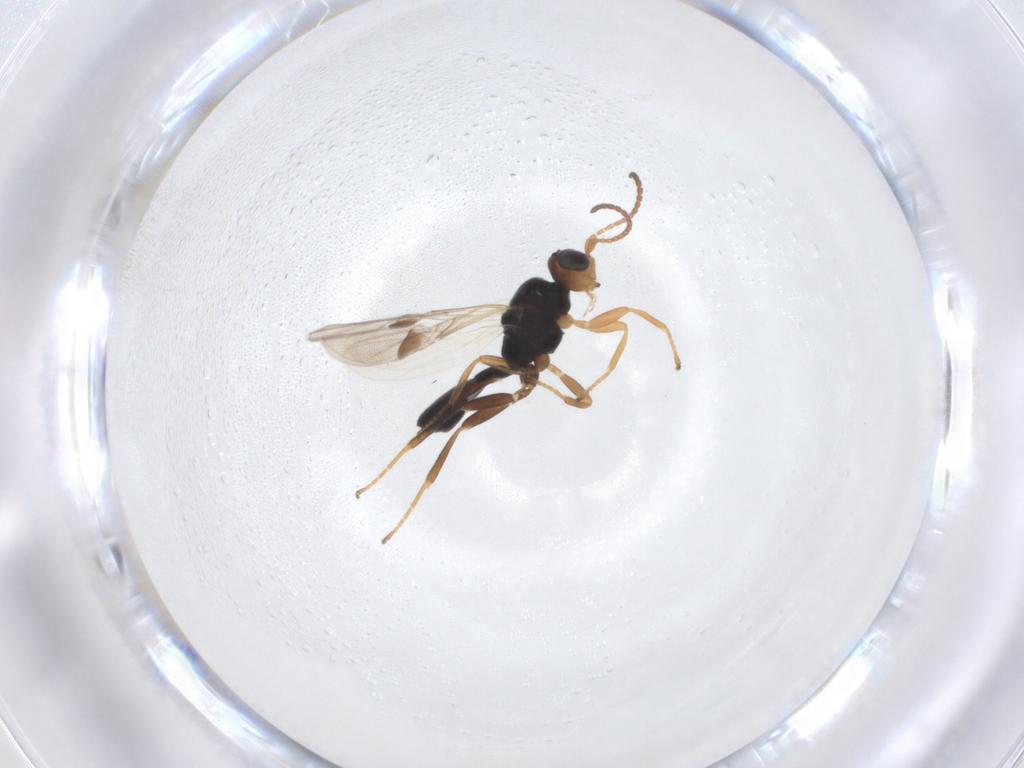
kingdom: Animalia
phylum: Arthropoda
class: Insecta
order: Hymenoptera
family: Braconidae
